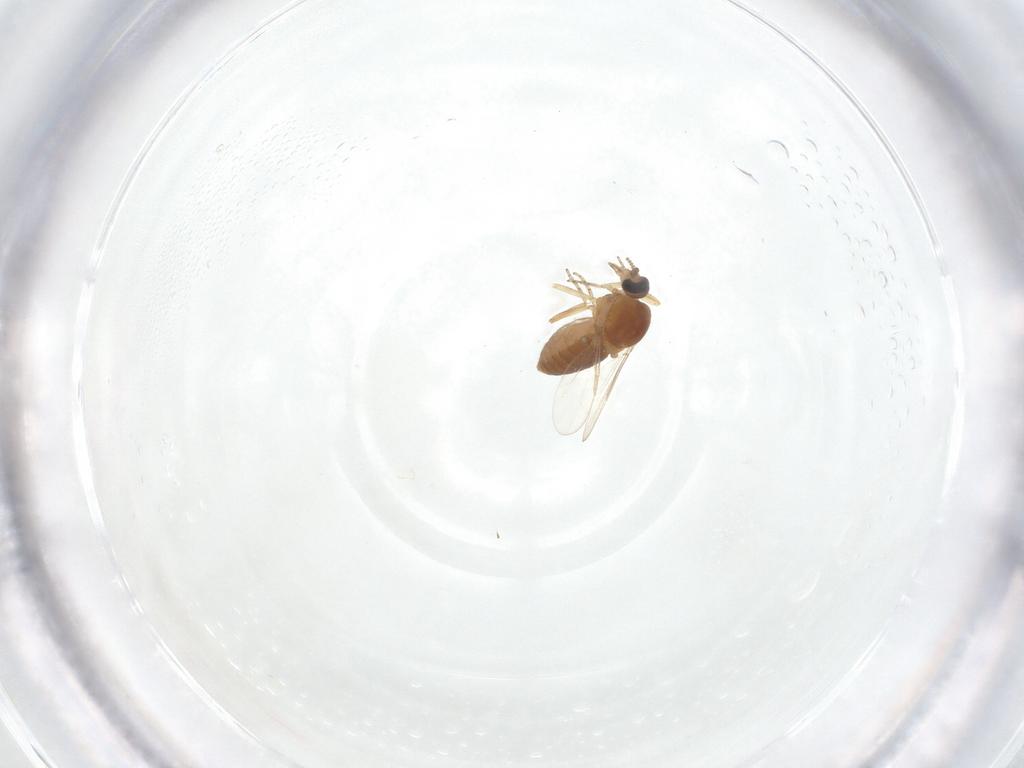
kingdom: Animalia
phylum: Arthropoda
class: Insecta
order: Diptera
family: Ceratopogonidae
